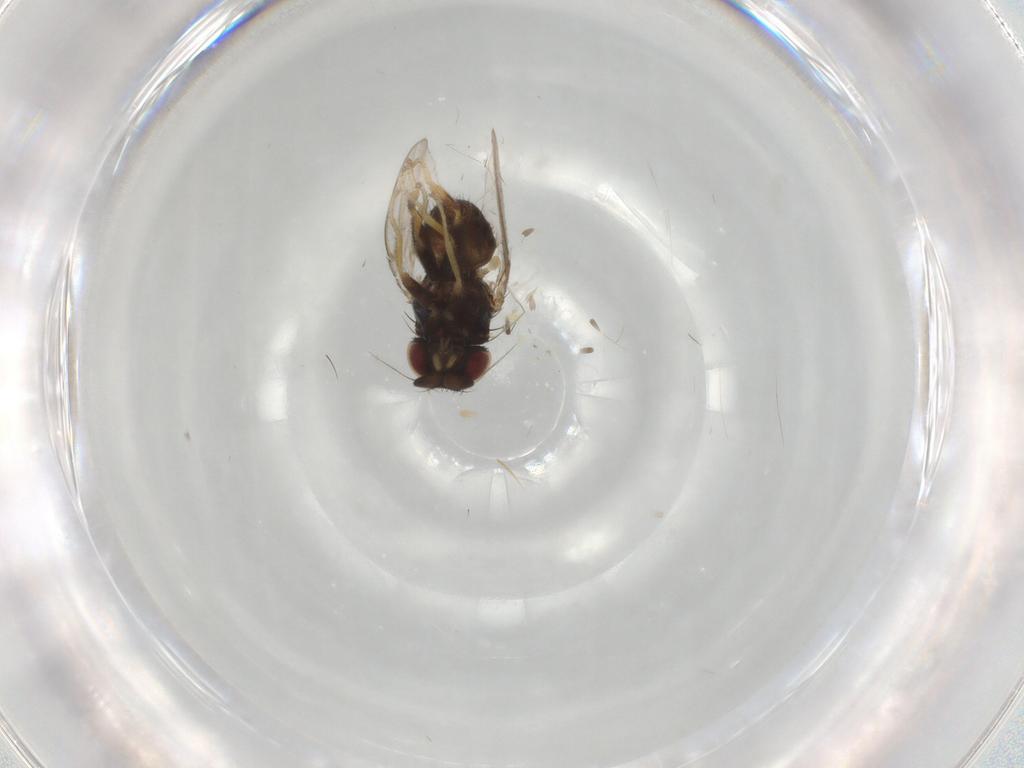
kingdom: Animalia
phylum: Arthropoda
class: Insecta
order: Diptera
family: Milichiidae
